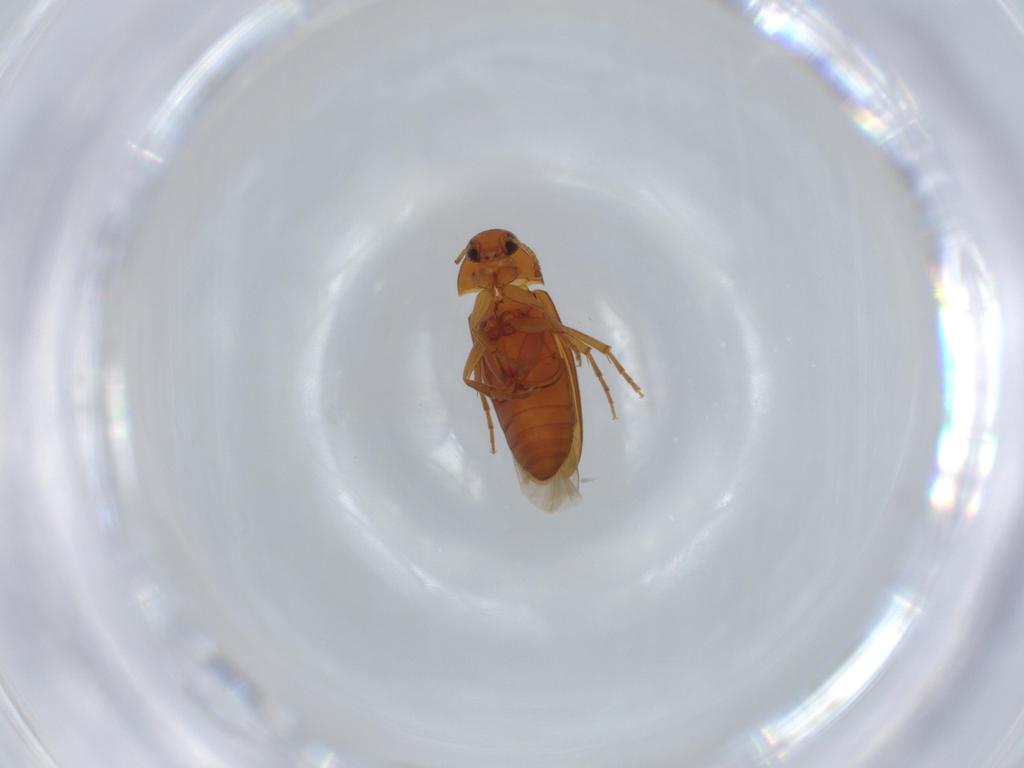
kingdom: Animalia
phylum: Arthropoda
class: Insecta
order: Coleoptera
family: Scraptiidae
